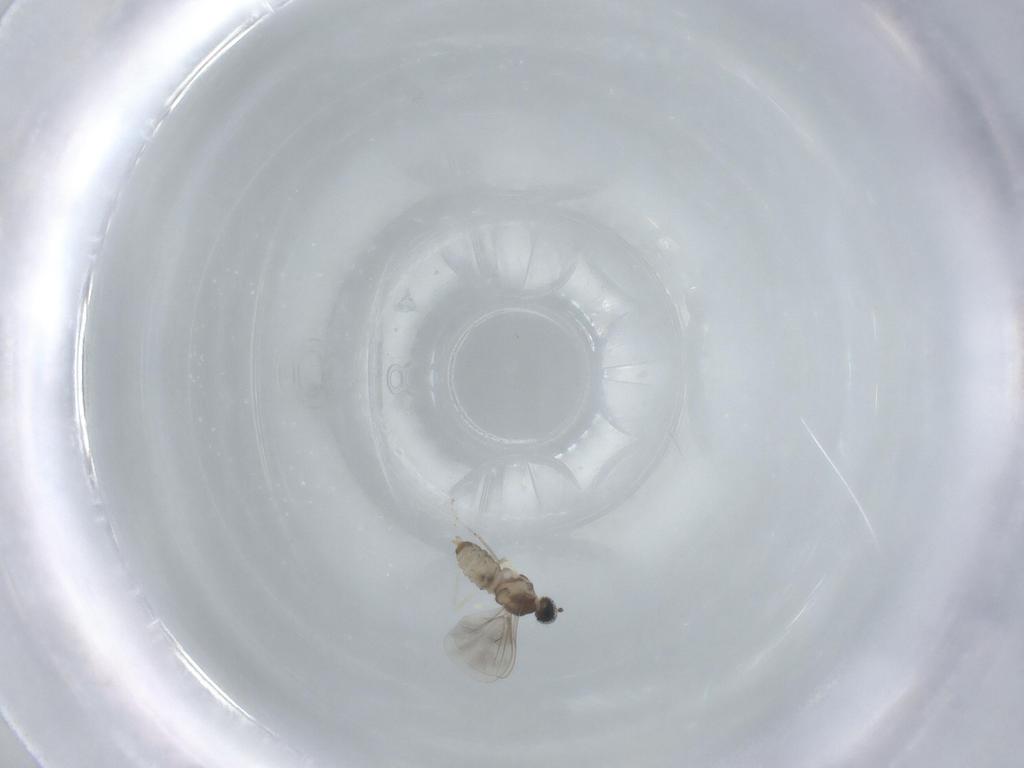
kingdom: Animalia
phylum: Arthropoda
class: Insecta
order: Diptera
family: Cecidomyiidae
